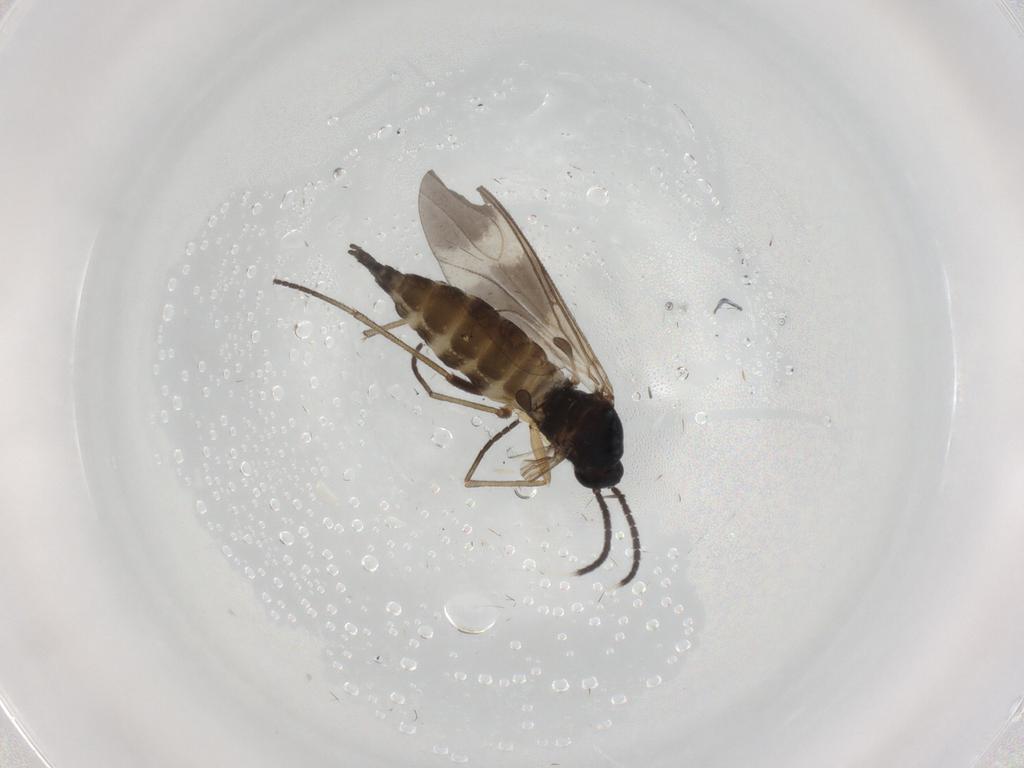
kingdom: Animalia
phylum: Arthropoda
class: Insecta
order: Diptera
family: Sciaridae
